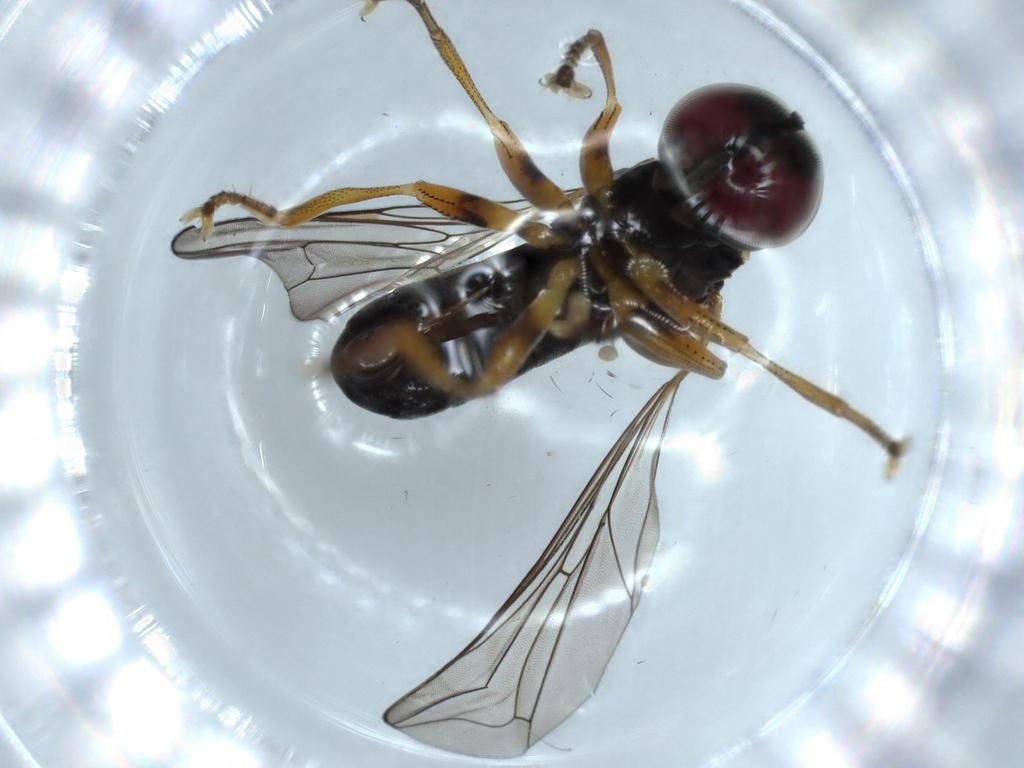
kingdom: Animalia
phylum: Arthropoda
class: Insecta
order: Diptera
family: Pipunculidae
